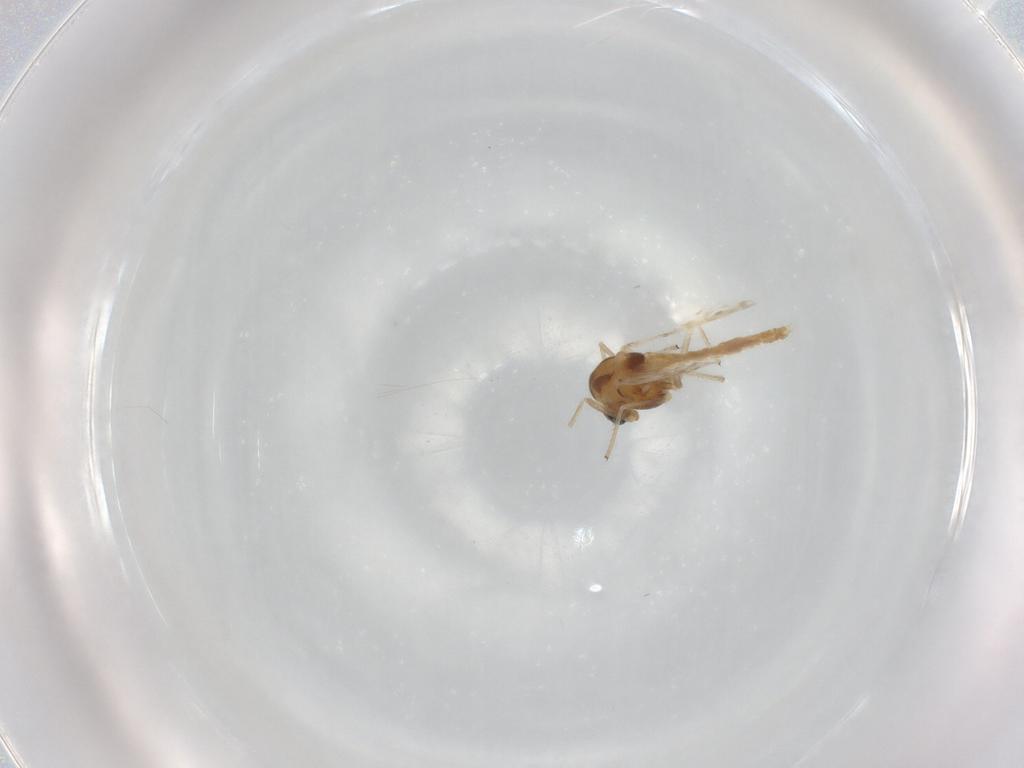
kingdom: Animalia
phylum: Arthropoda
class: Insecta
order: Diptera
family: Chironomidae
